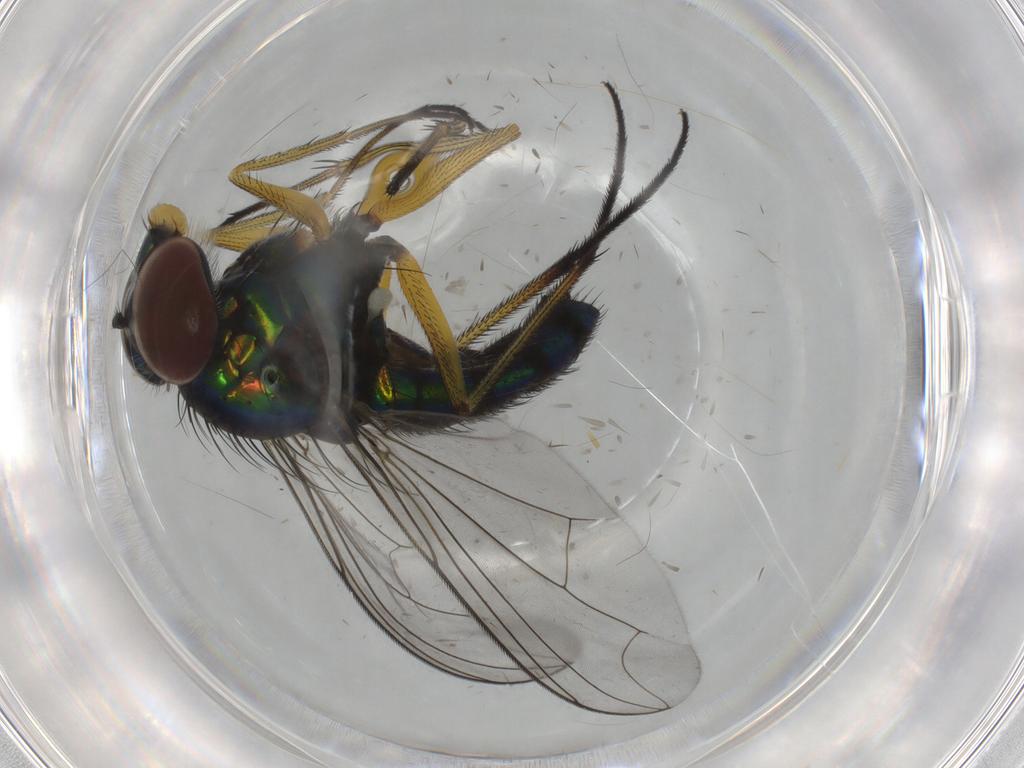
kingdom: Animalia
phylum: Arthropoda
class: Insecta
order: Diptera
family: Dolichopodidae
